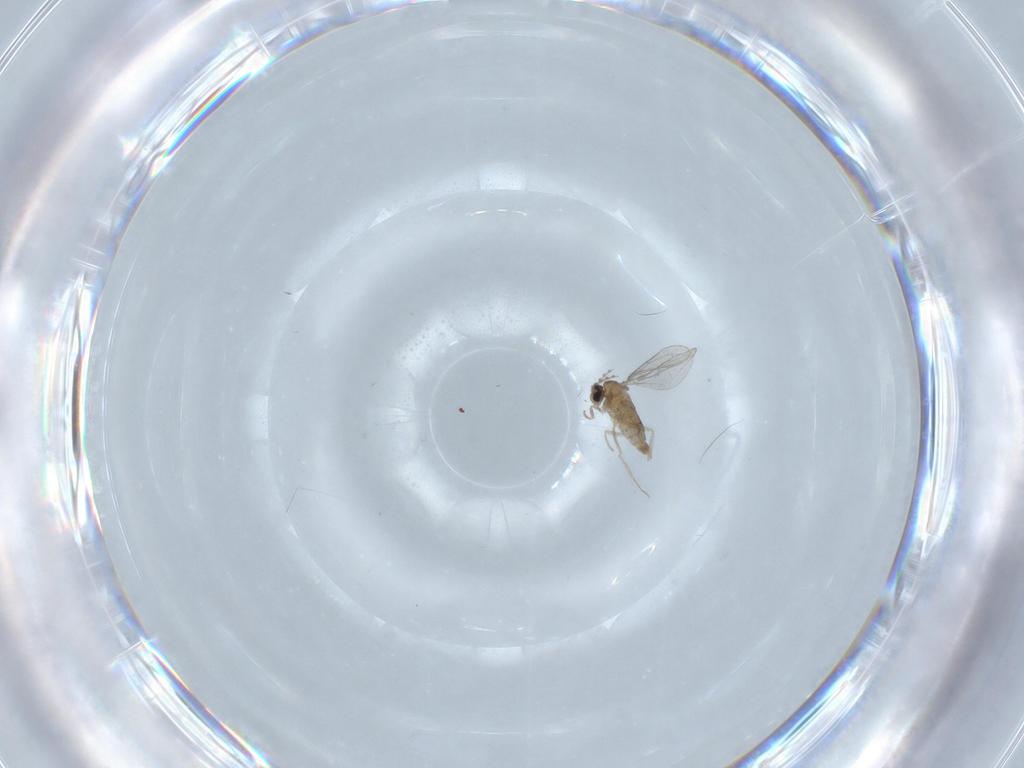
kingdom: Animalia
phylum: Arthropoda
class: Insecta
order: Diptera
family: Cecidomyiidae
